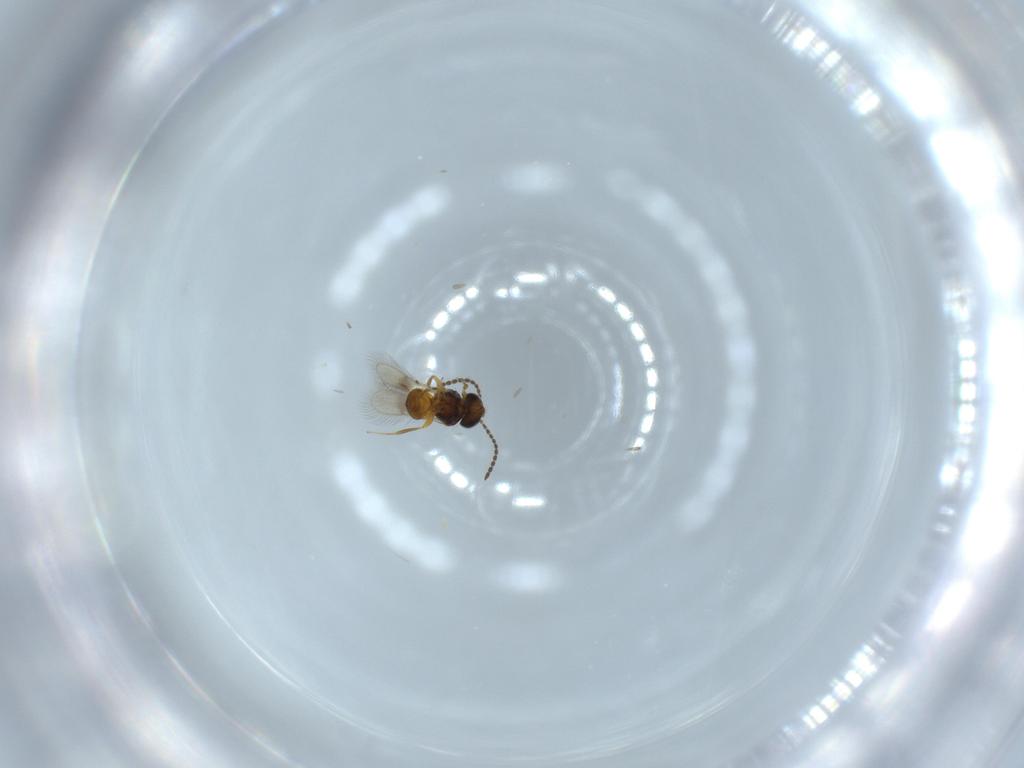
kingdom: Animalia
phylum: Arthropoda
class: Insecta
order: Hymenoptera
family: Scelionidae
